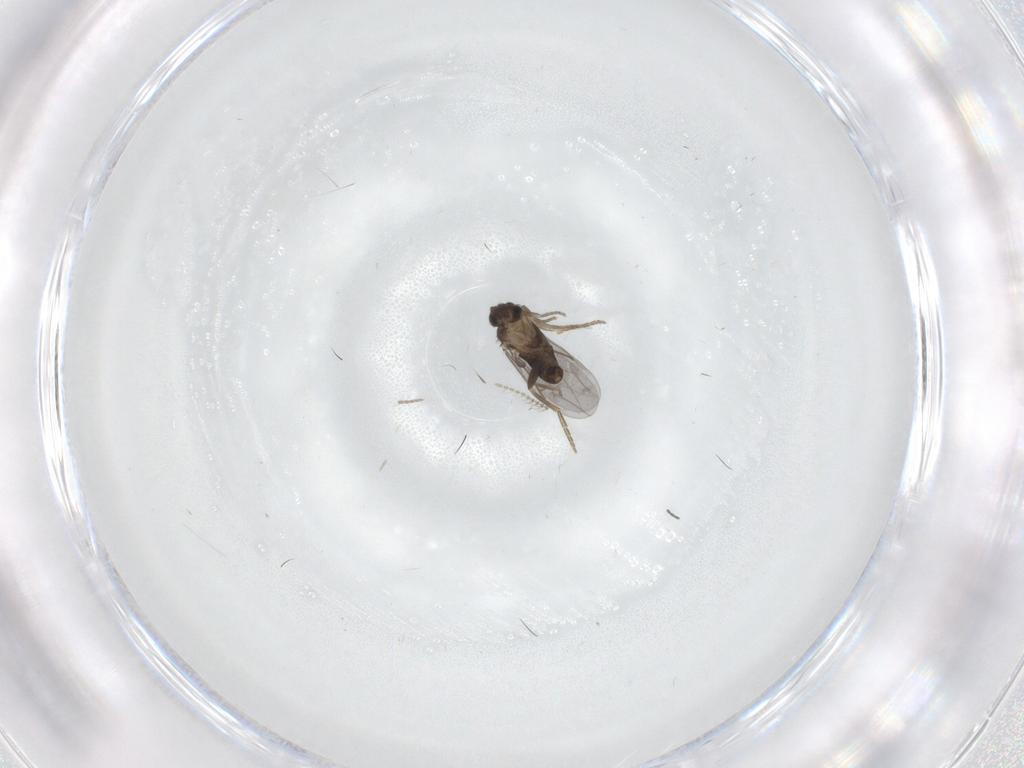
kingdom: Animalia
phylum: Arthropoda
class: Insecta
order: Diptera
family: Ceratopogonidae
